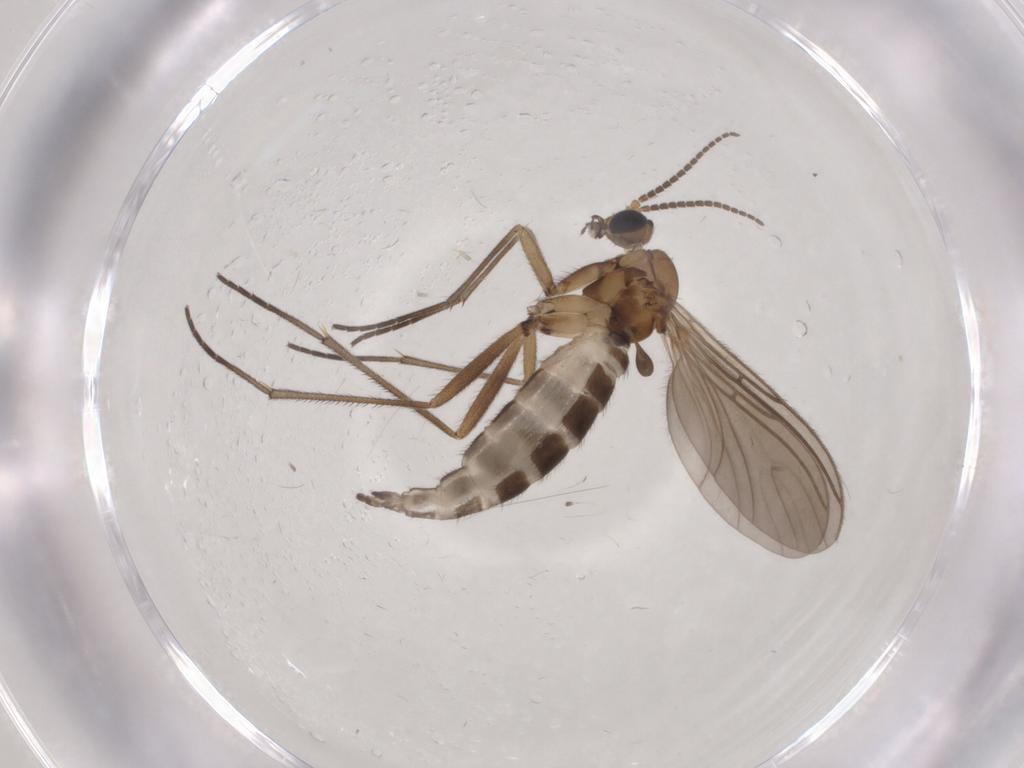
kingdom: Animalia
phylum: Arthropoda
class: Insecta
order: Diptera
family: Sciaridae
